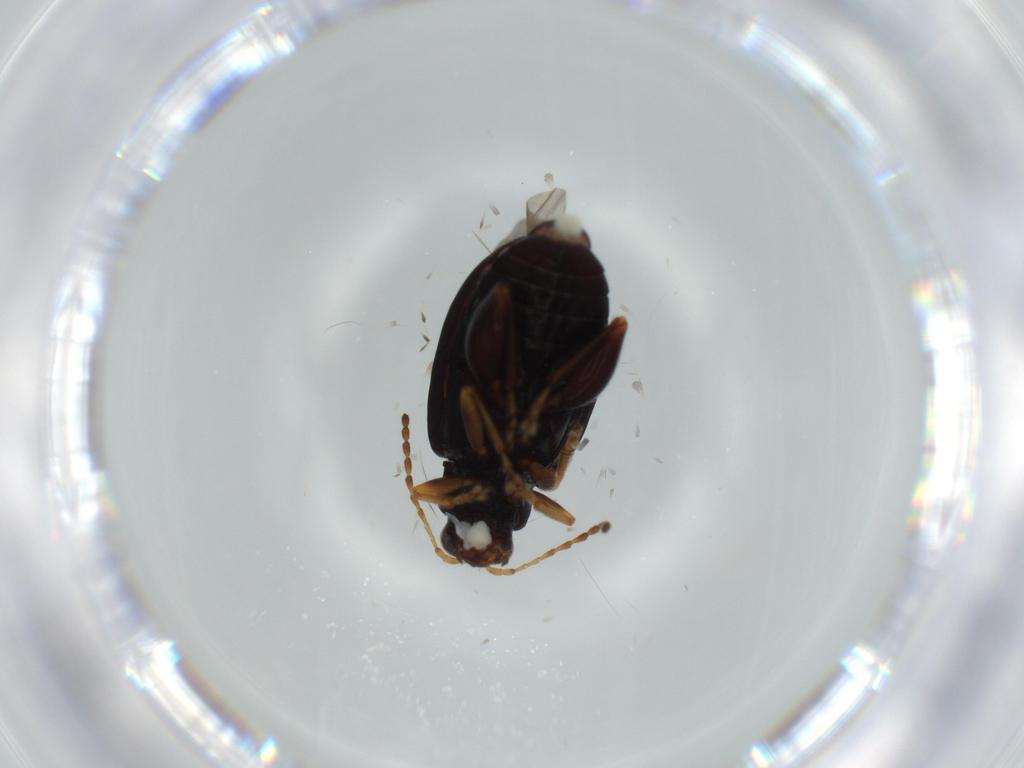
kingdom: Animalia
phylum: Arthropoda
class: Insecta
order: Coleoptera
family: Chrysomelidae
